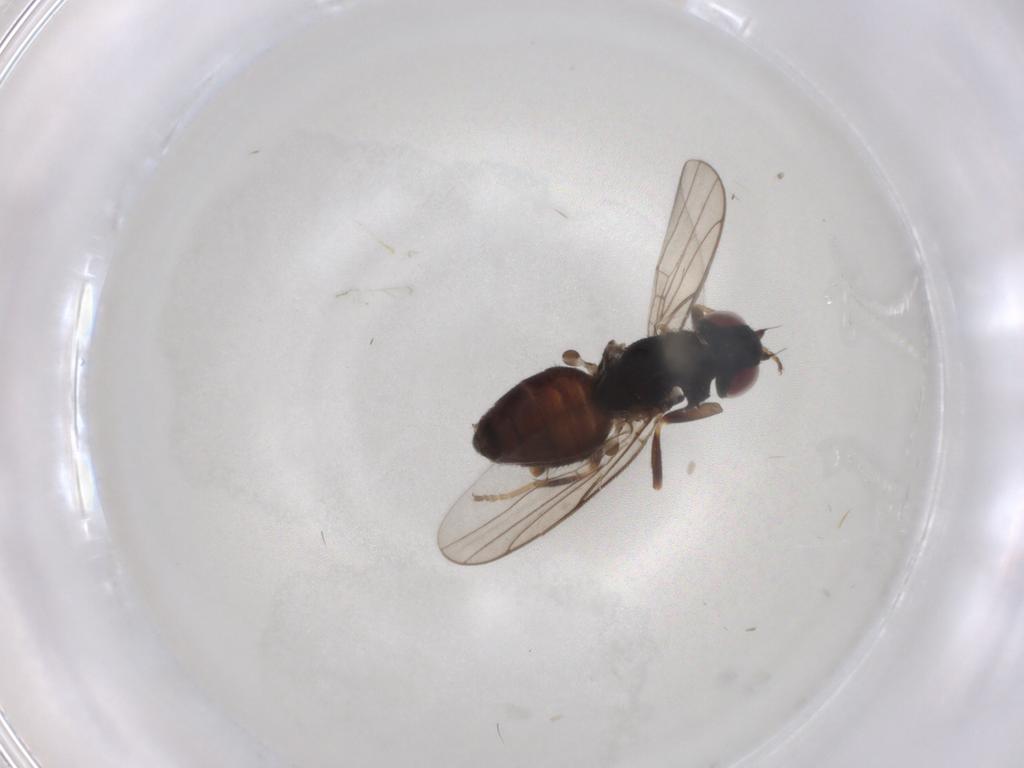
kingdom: Animalia
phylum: Arthropoda
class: Insecta
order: Diptera
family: Chloropidae
